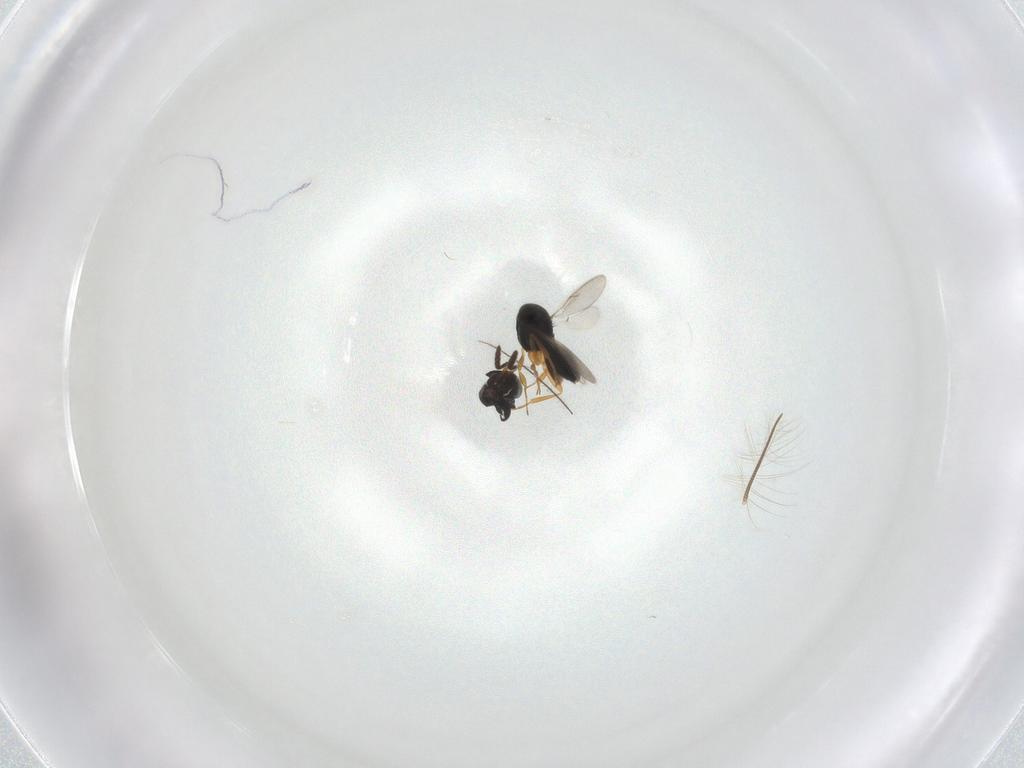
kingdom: Animalia
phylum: Arthropoda
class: Insecta
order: Hymenoptera
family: Scelionidae
